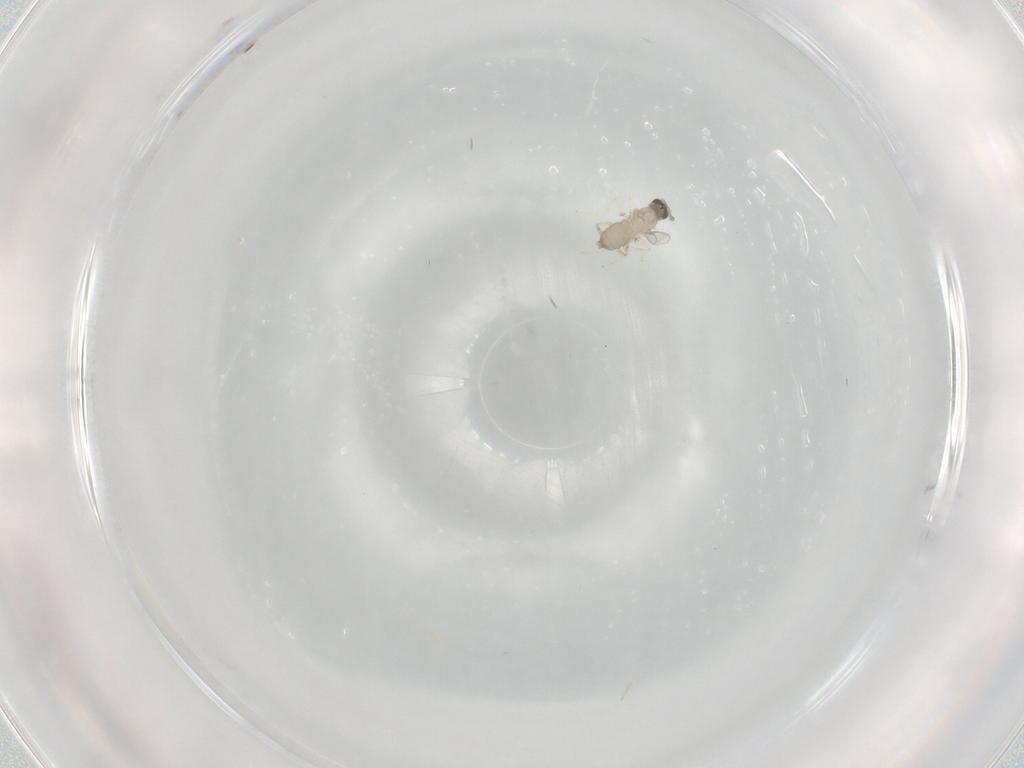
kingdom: Animalia
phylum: Arthropoda
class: Insecta
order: Diptera
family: Cecidomyiidae
